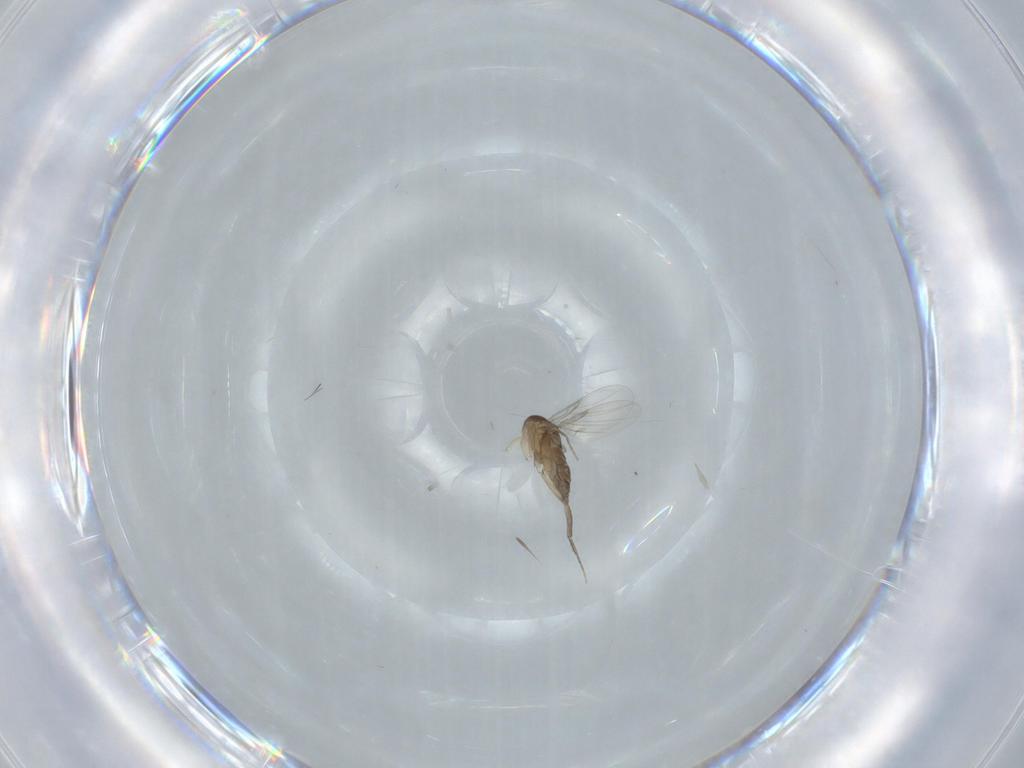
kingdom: Animalia
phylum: Arthropoda
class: Insecta
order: Diptera
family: Phoridae
